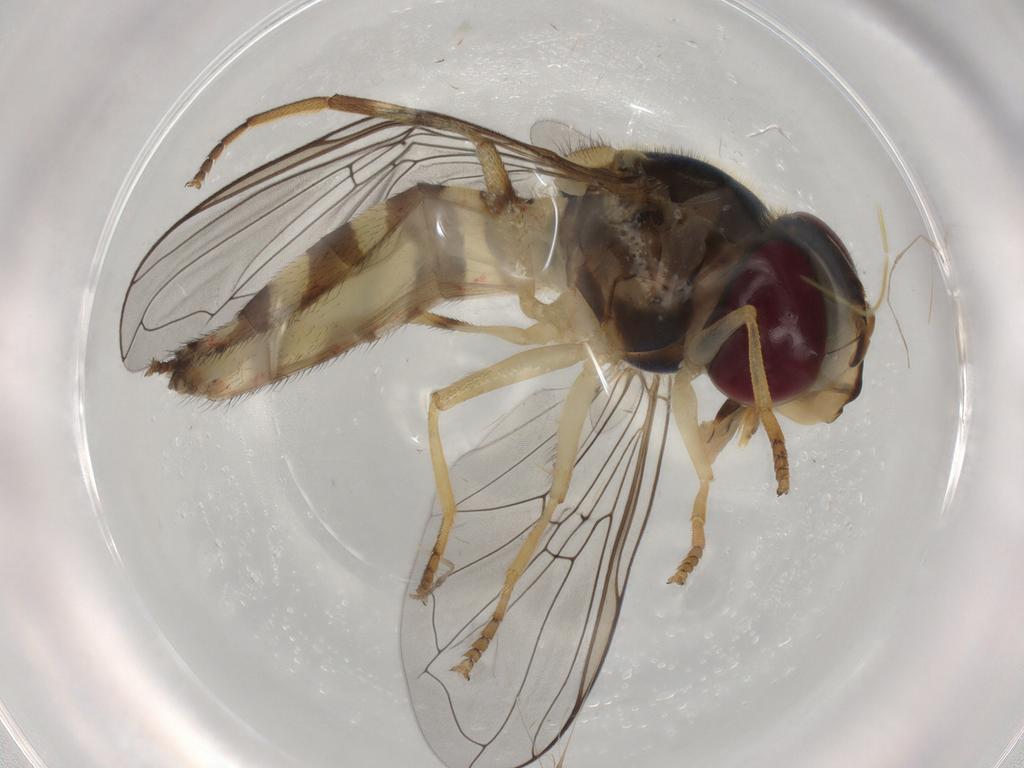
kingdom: Animalia
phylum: Arthropoda
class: Insecta
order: Diptera
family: Syrphidae
